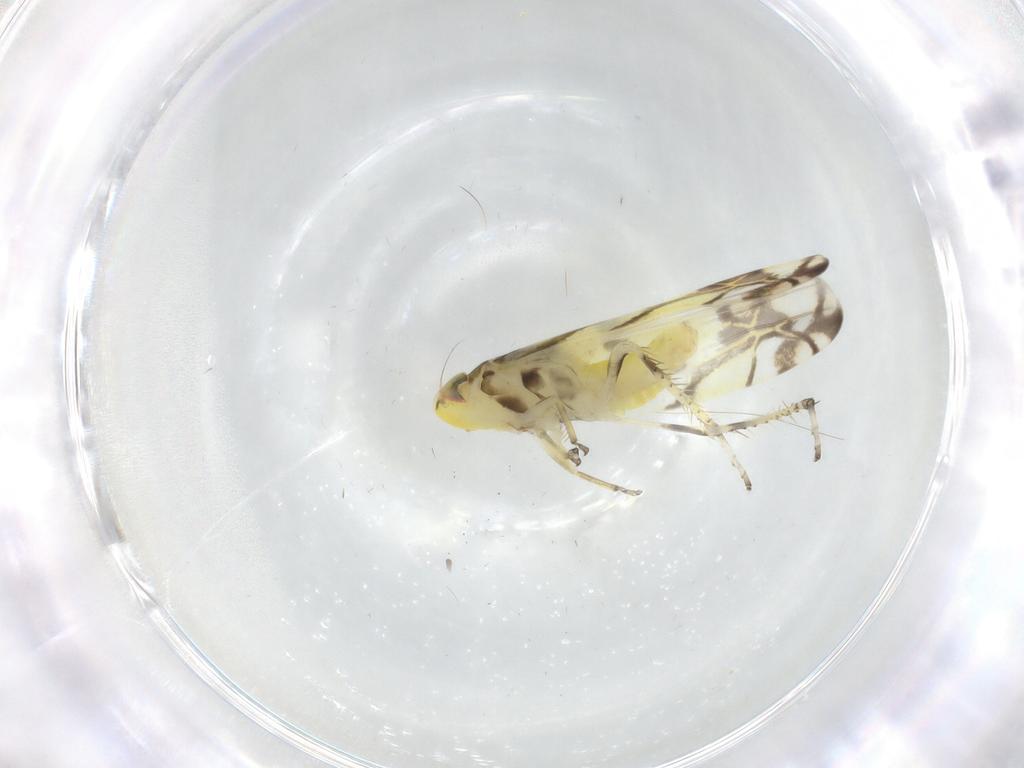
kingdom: Animalia
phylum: Arthropoda
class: Insecta
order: Hemiptera
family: Cicadellidae
